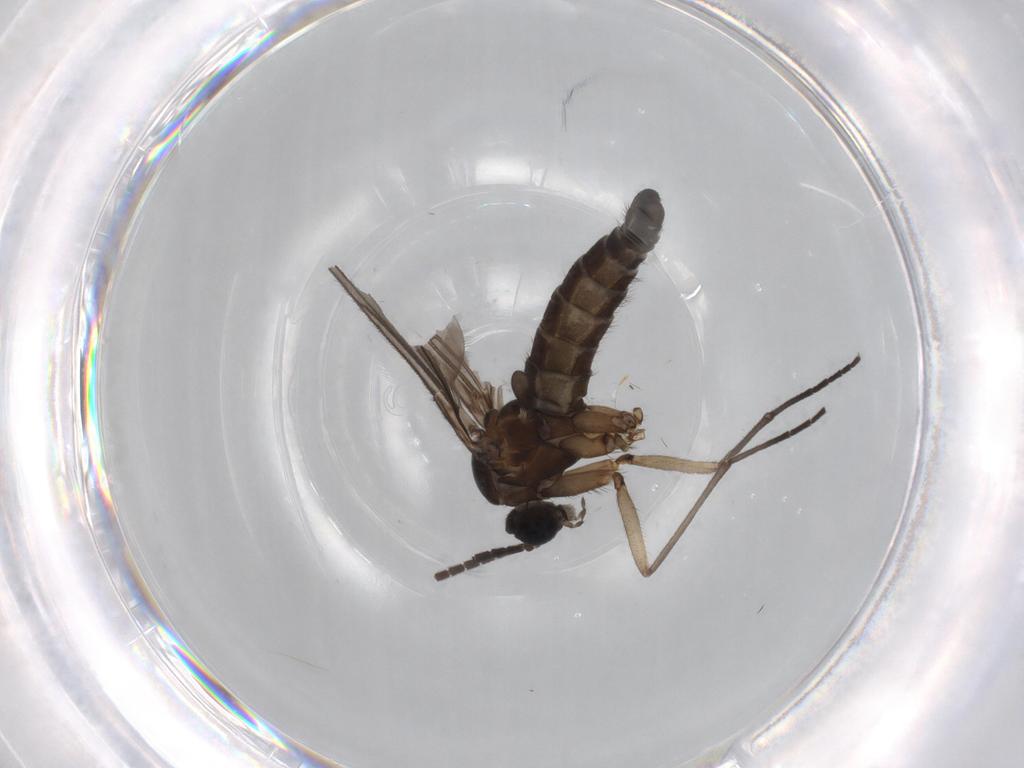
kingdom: Animalia
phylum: Arthropoda
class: Insecta
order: Diptera
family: Sciaridae
